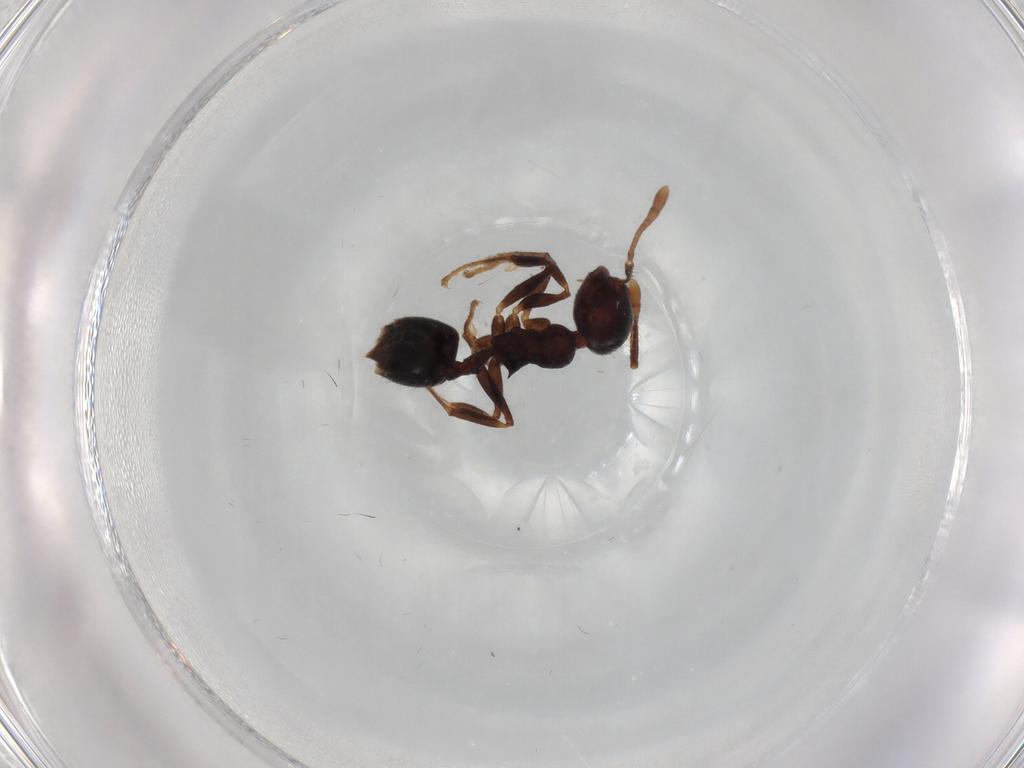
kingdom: Animalia
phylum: Arthropoda
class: Insecta
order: Hymenoptera
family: Formicidae
